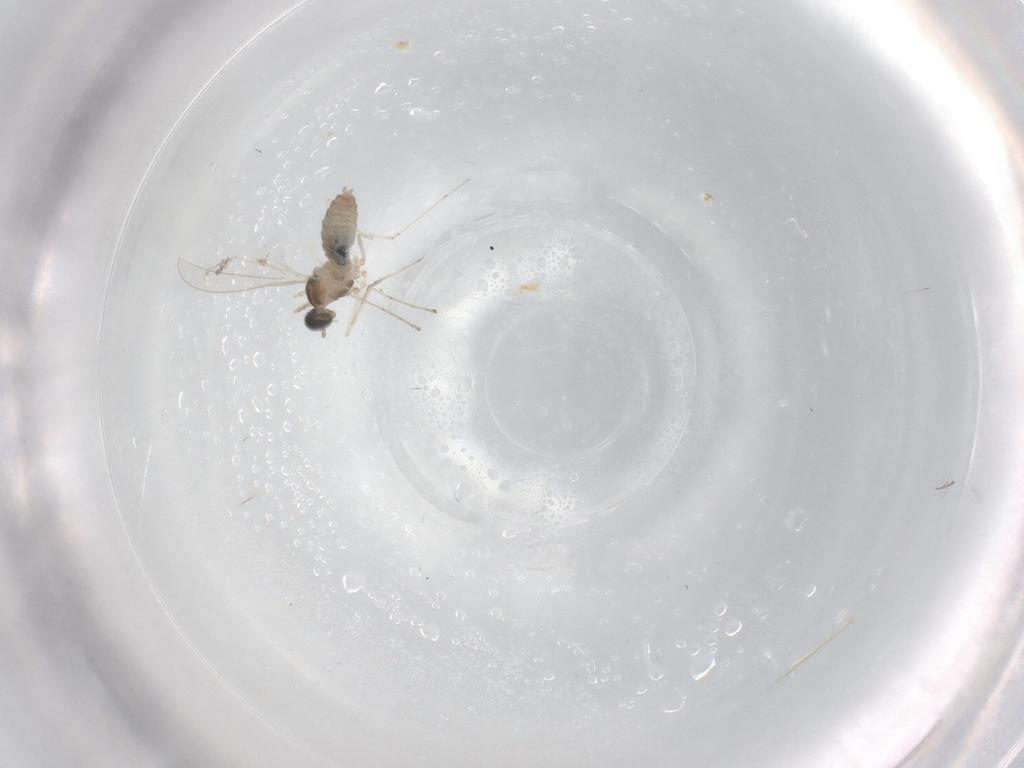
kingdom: Animalia
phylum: Arthropoda
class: Insecta
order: Diptera
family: Cecidomyiidae
